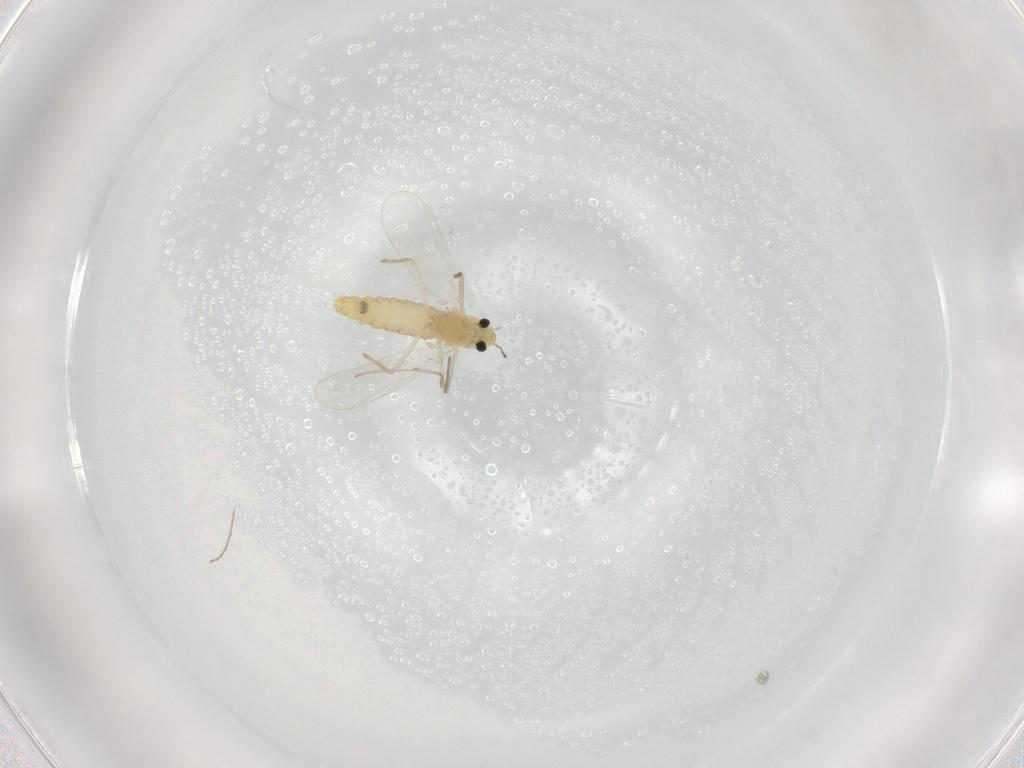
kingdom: Animalia
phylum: Arthropoda
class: Insecta
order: Diptera
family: Chironomidae
